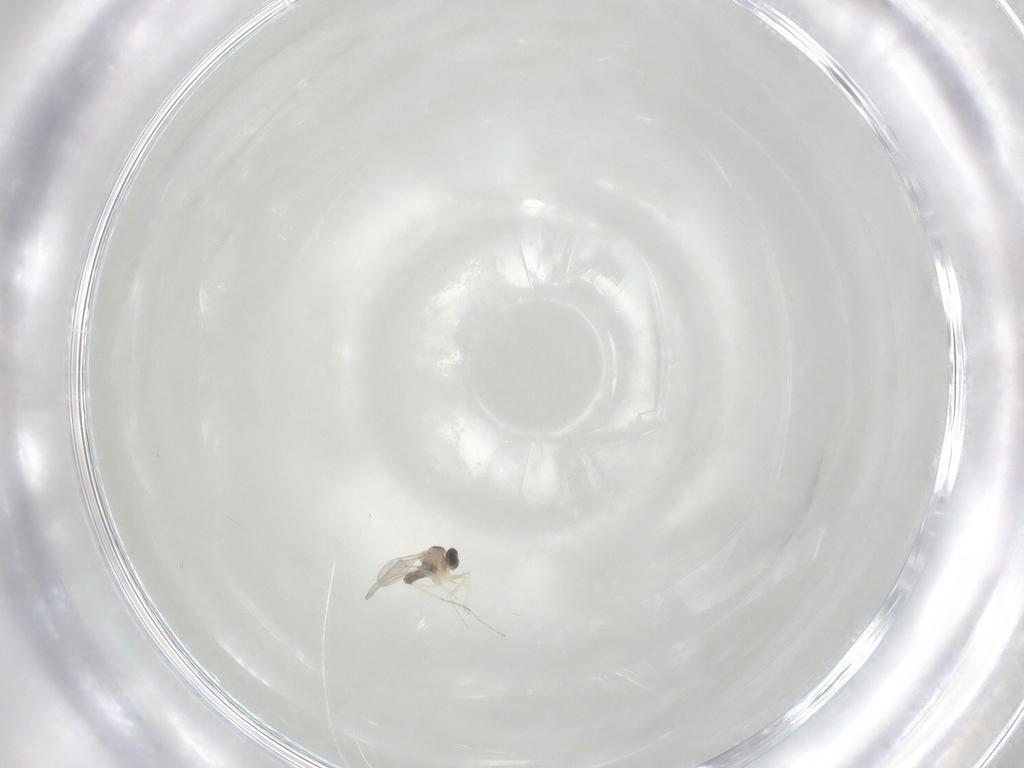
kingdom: Animalia
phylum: Arthropoda
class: Insecta
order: Diptera
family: Cecidomyiidae
